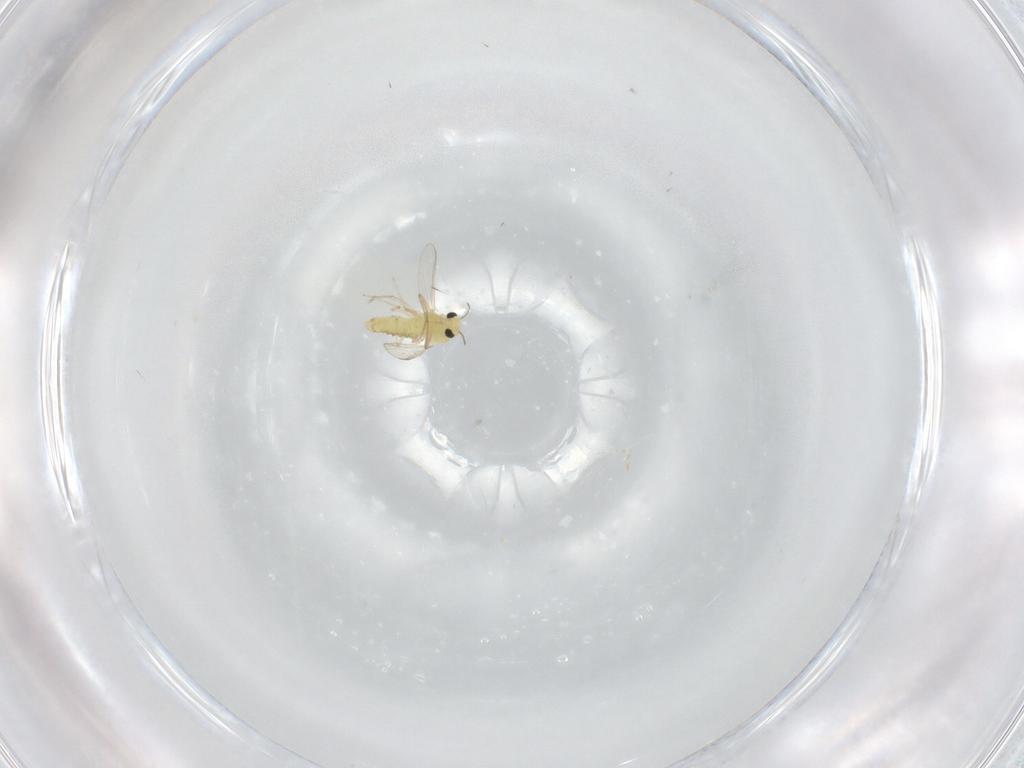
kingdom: Animalia
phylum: Arthropoda
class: Insecta
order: Diptera
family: Chironomidae
